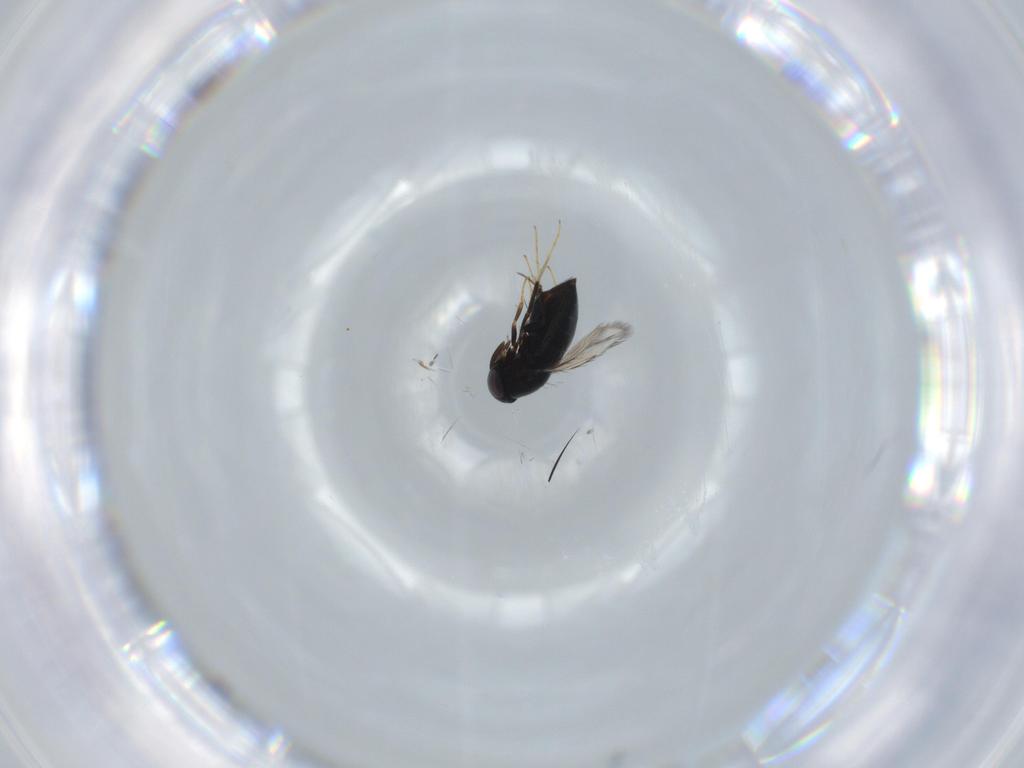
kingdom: Animalia
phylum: Arthropoda
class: Insecta
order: Hymenoptera
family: Signiphoridae
